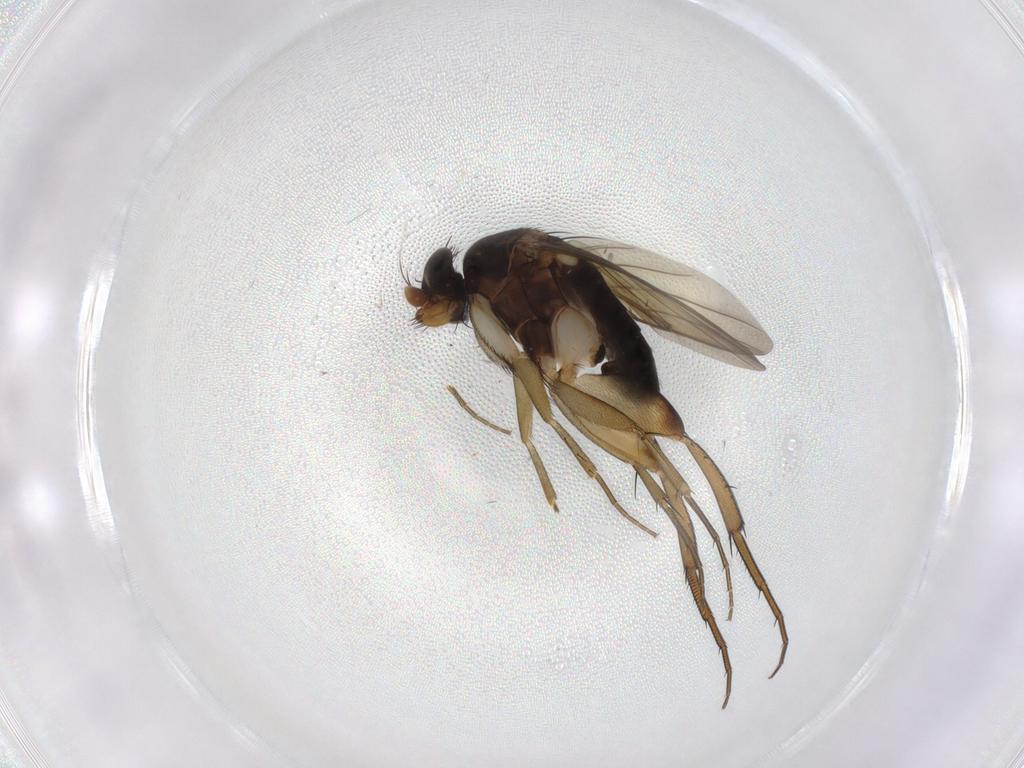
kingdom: Animalia
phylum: Arthropoda
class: Insecta
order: Diptera
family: Phoridae
